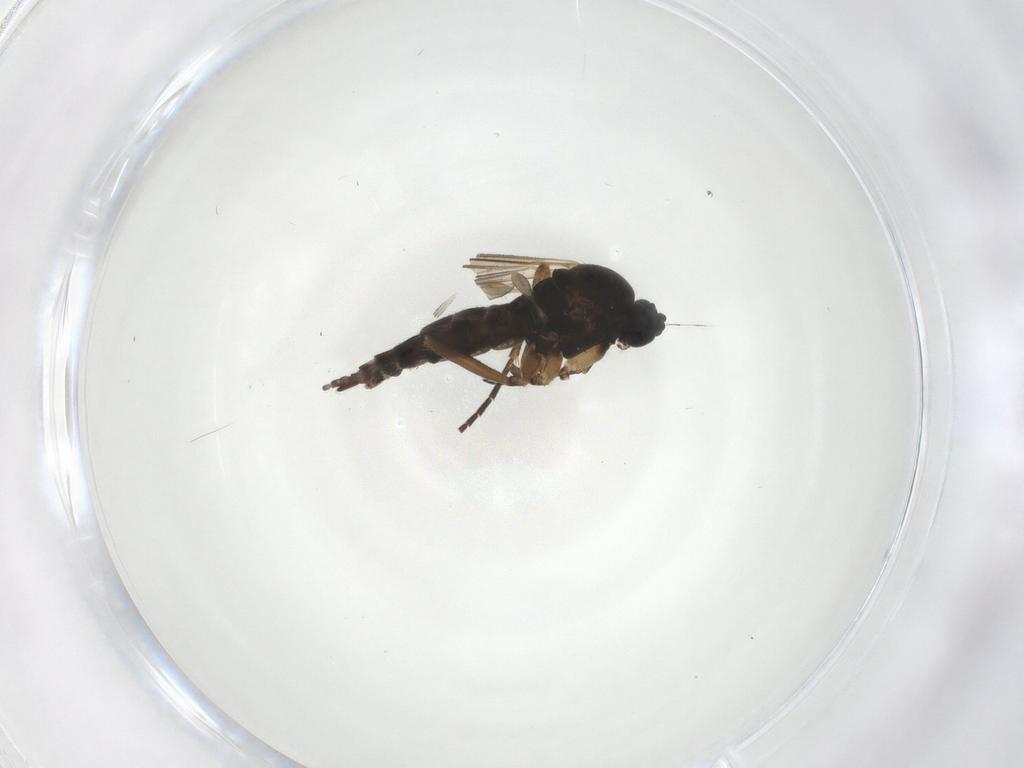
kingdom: Animalia
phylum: Arthropoda
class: Insecta
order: Diptera
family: Sciaridae
